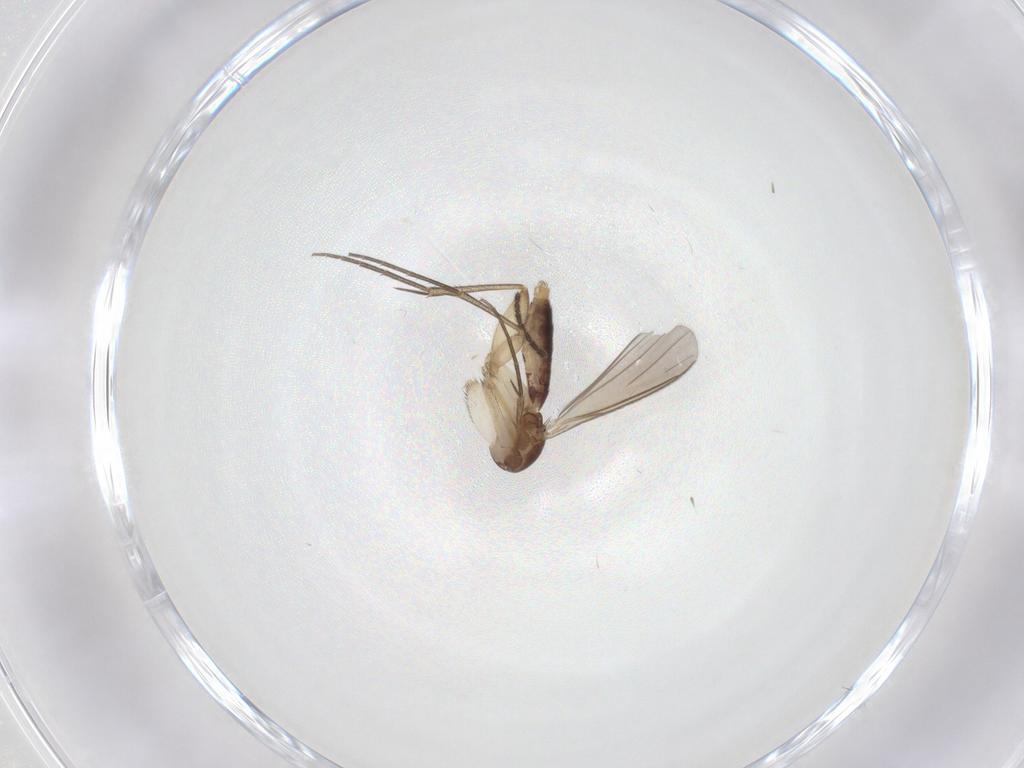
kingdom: Animalia
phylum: Arthropoda
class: Insecta
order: Diptera
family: Mycetophilidae
